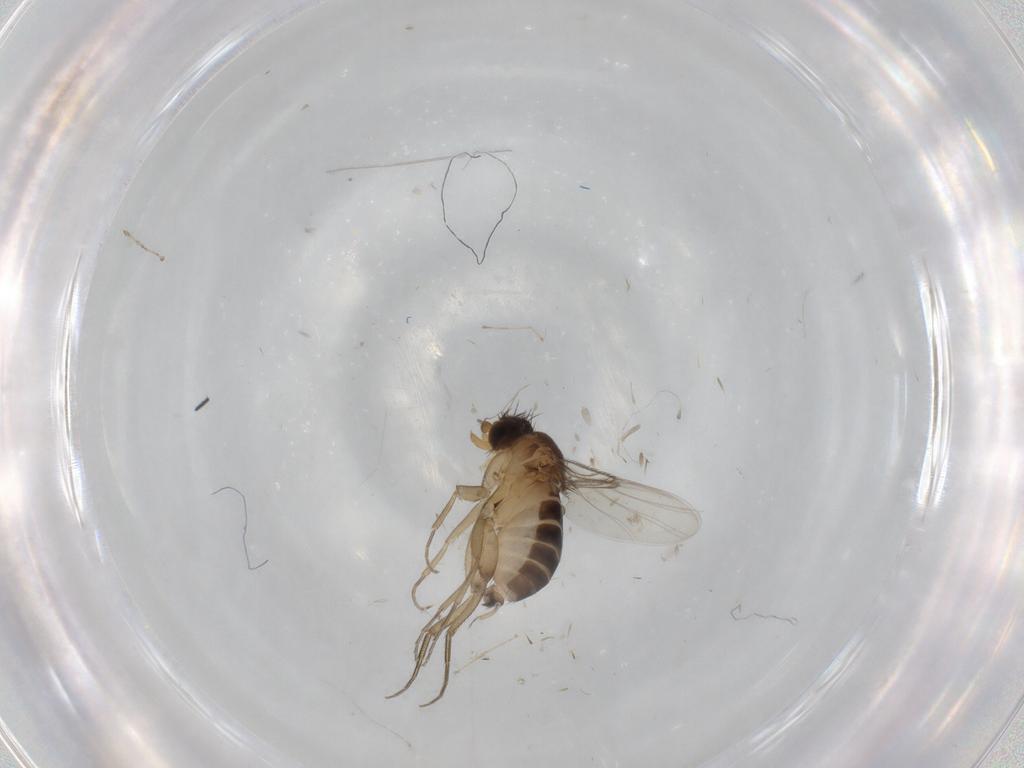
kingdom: Animalia
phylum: Arthropoda
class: Insecta
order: Diptera
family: Cecidomyiidae
